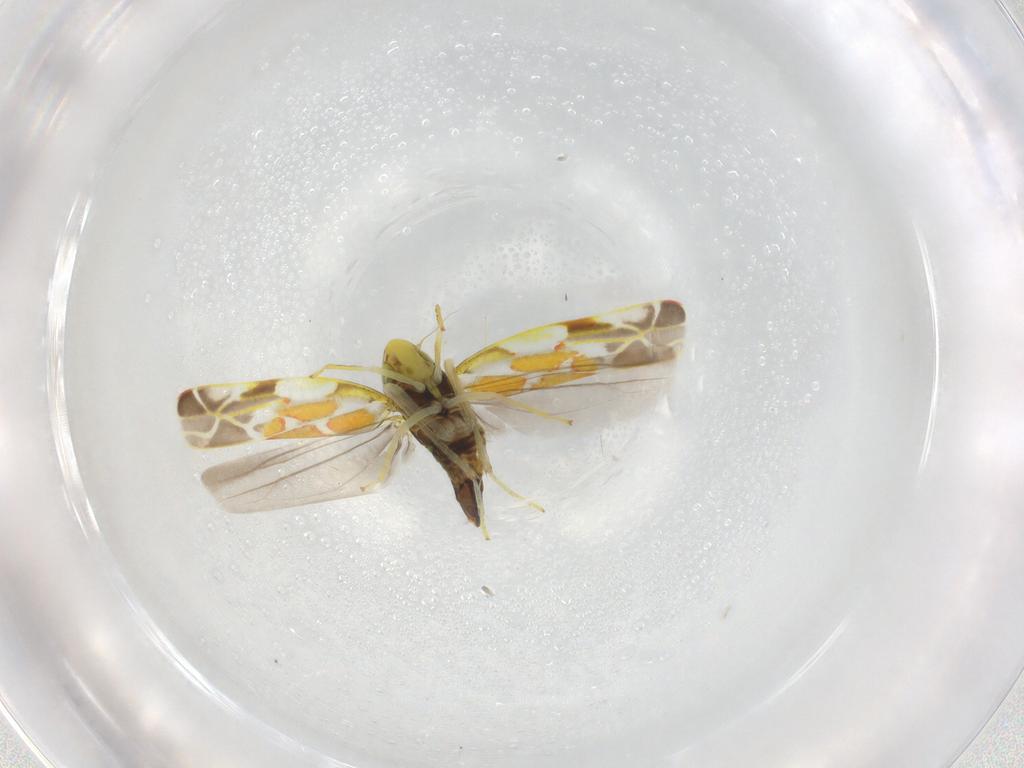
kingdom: Animalia
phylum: Arthropoda
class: Insecta
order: Hemiptera
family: Cicadellidae
